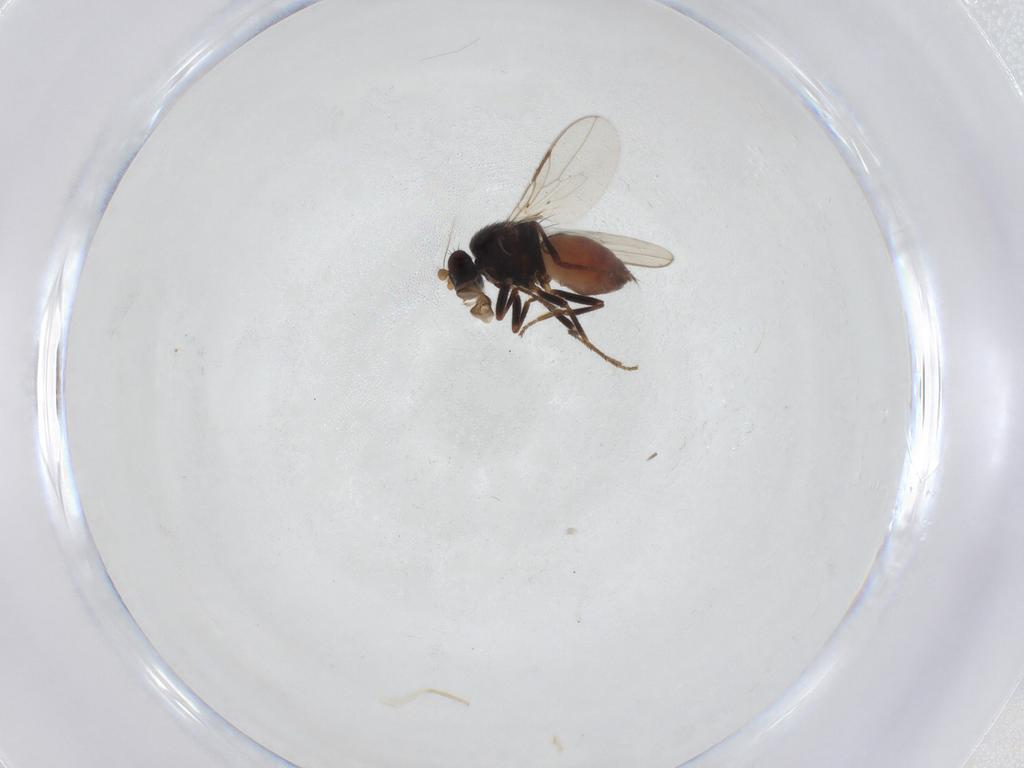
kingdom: Animalia
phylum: Arthropoda
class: Insecta
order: Diptera
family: Sphaeroceridae
